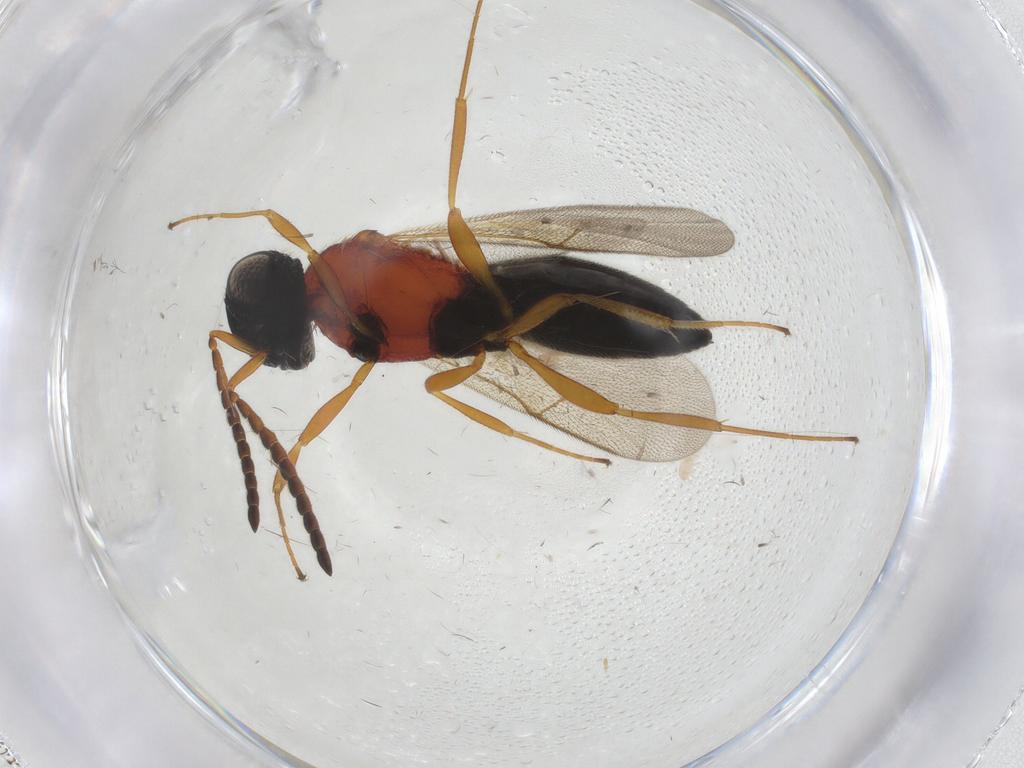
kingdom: Animalia
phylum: Arthropoda
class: Insecta
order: Hymenoptera
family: Scelionidae
